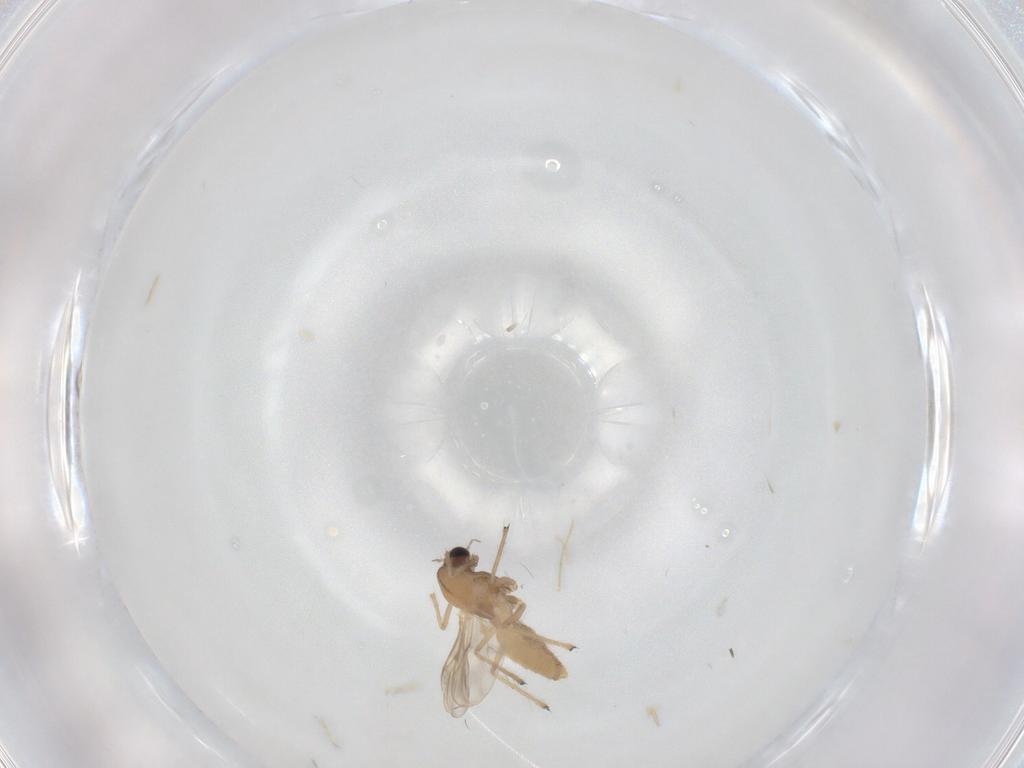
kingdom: Animalia
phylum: Arthropoda
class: Insecta
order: Diptera
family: Sphaeroceridae
